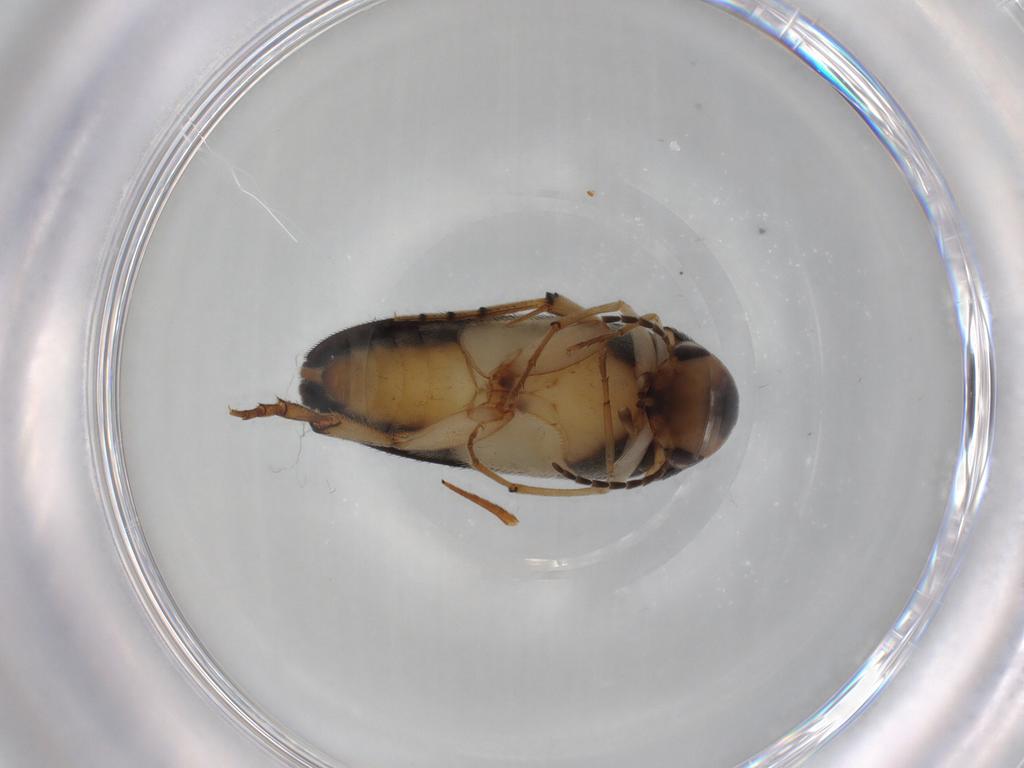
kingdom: Animalia
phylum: Arthropoda
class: Insecta
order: Coleoptera
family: Mordellidae
